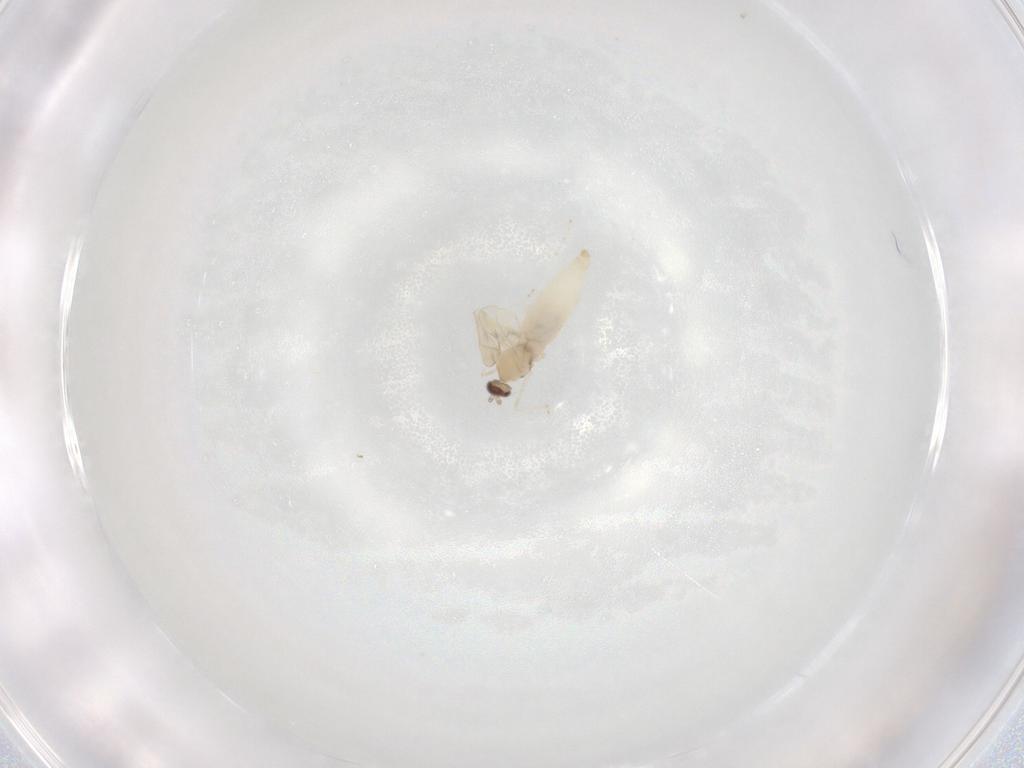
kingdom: Animalia
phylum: Arthropoda
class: Insecta
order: Diptera
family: Cecidomyiidae
